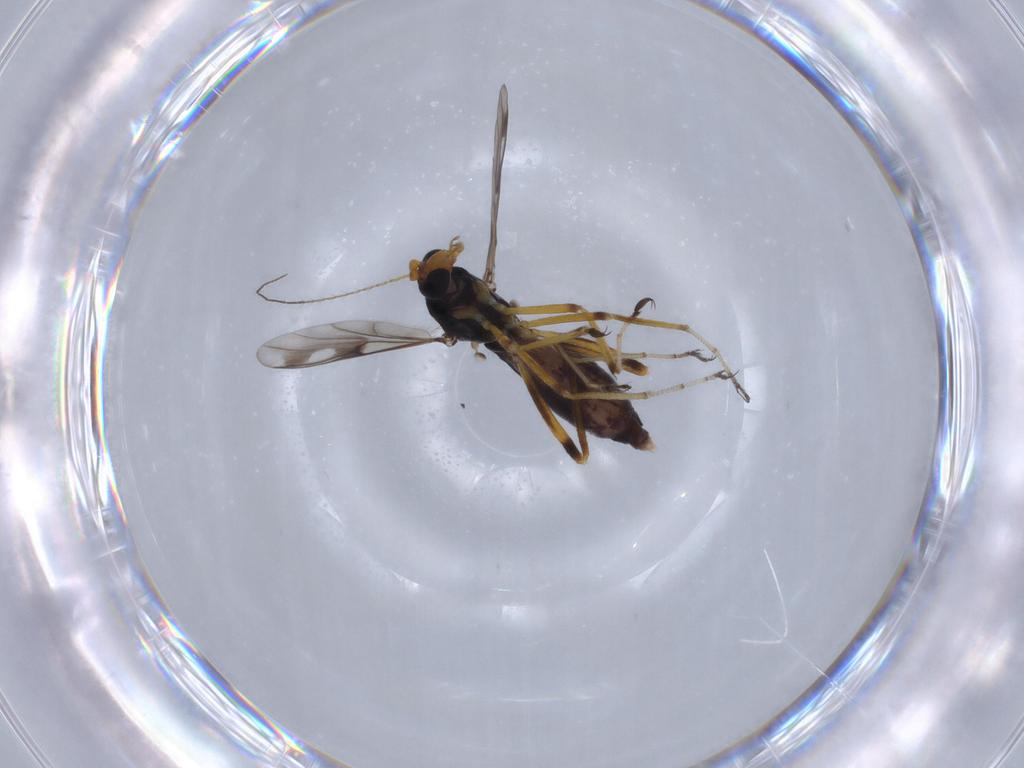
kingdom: Animalia
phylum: Arthropoda
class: Insecta
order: Diptera
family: Ceratopogonidae
